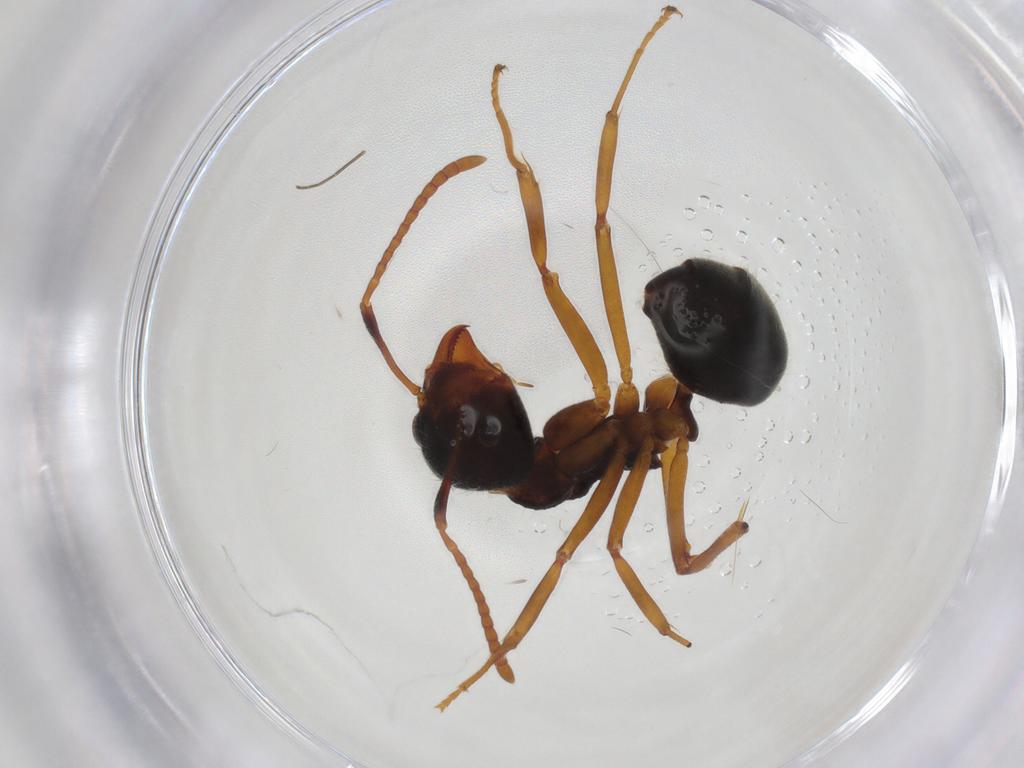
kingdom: Animalia
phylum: Arthropoda
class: Insecta
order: Hymenoptera
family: Formicidae
